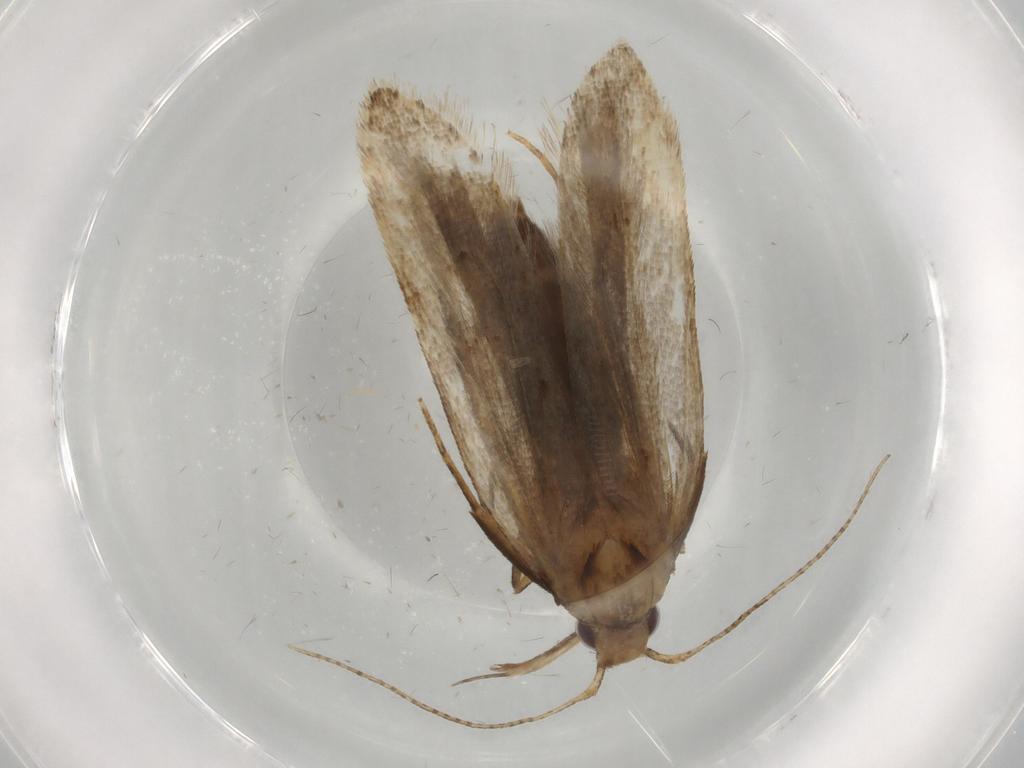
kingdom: Animalia
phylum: Arthropoda
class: Insecta
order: Lepidoptera
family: Gelechiidae
